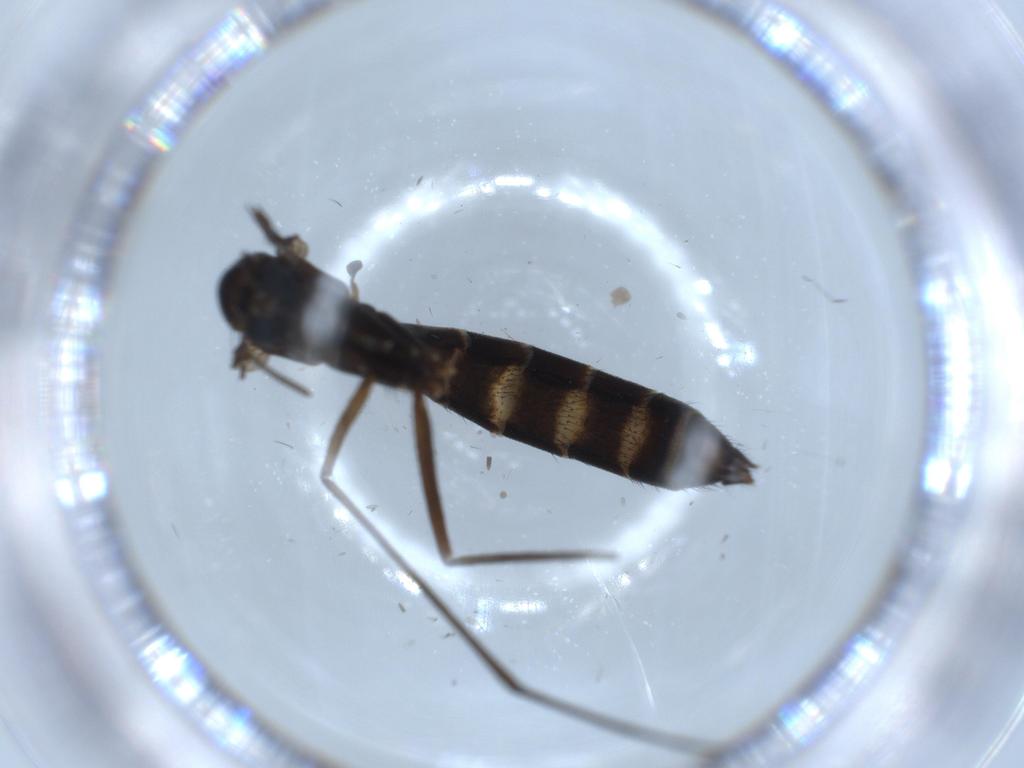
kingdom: Animalia
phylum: Arthropoda
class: Insecta
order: Diptera
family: Ditomyiidae
